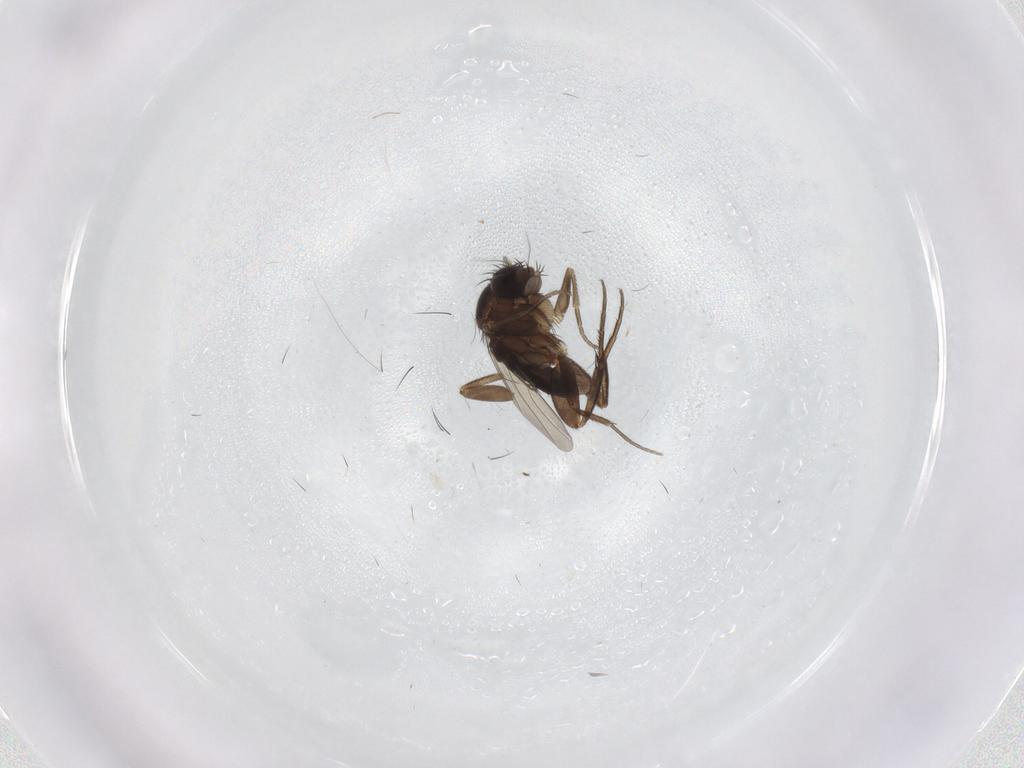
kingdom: Animalia
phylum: Arthropoda
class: Insecta
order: Diptera
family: Phoridae
